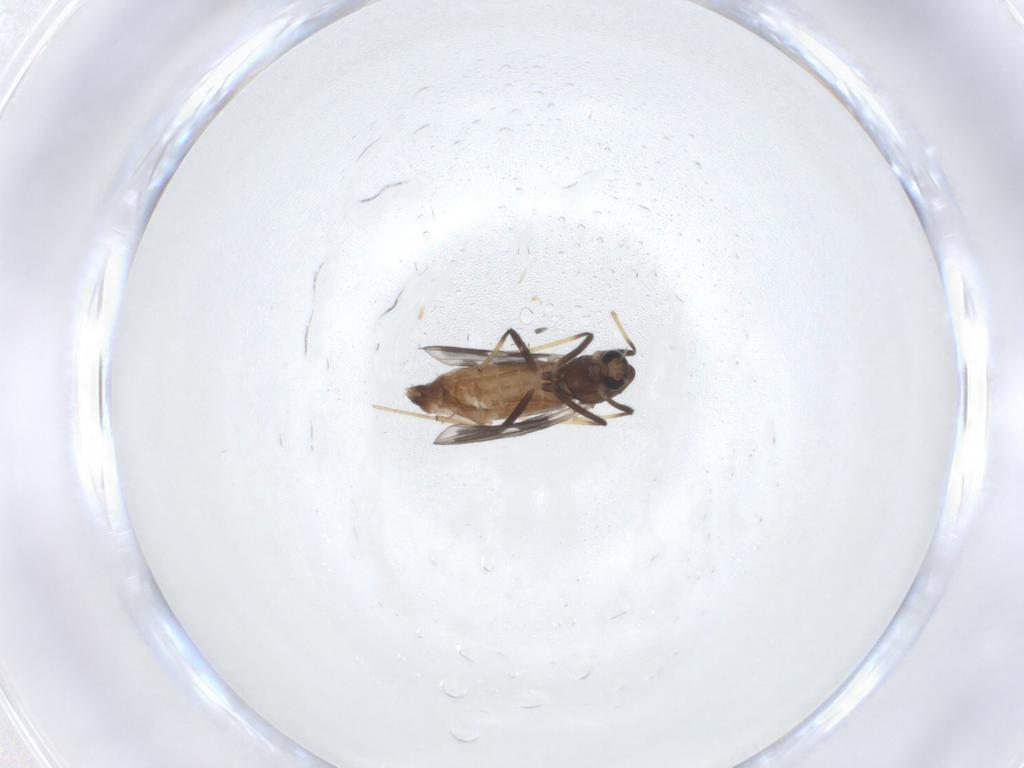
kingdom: Animalia
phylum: Arthropoda
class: Insecta
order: Diptera
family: Chironomidae
